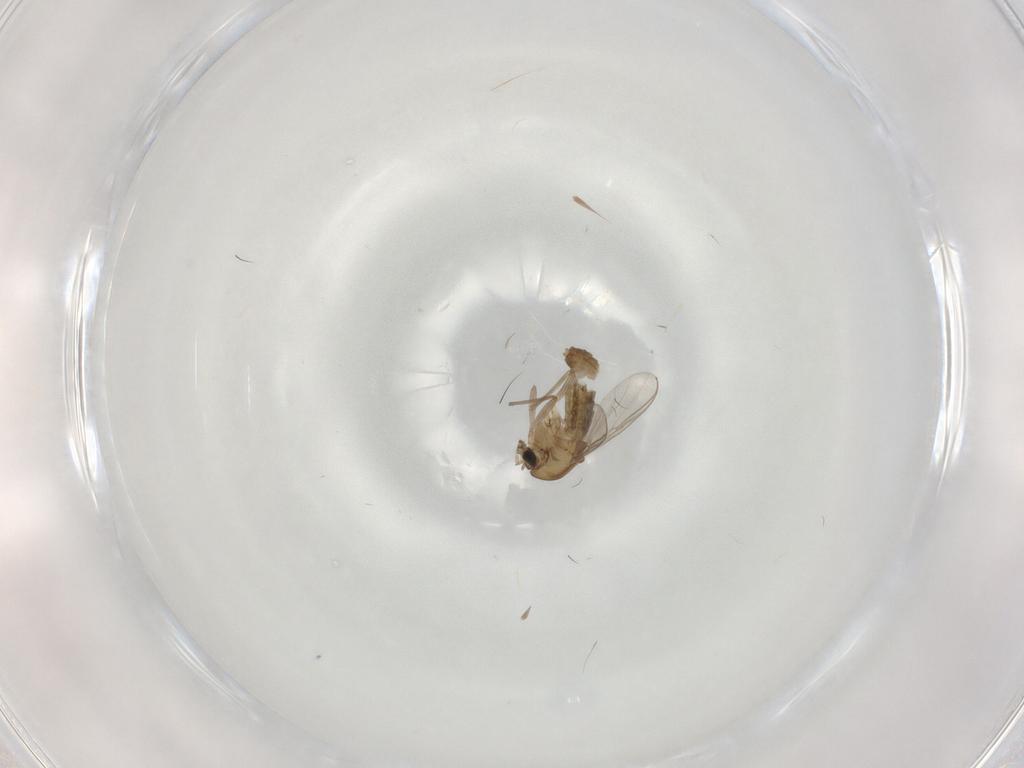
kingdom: Animalia
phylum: Arthropoda
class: Insecta
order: Diptera
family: Chironomidae
